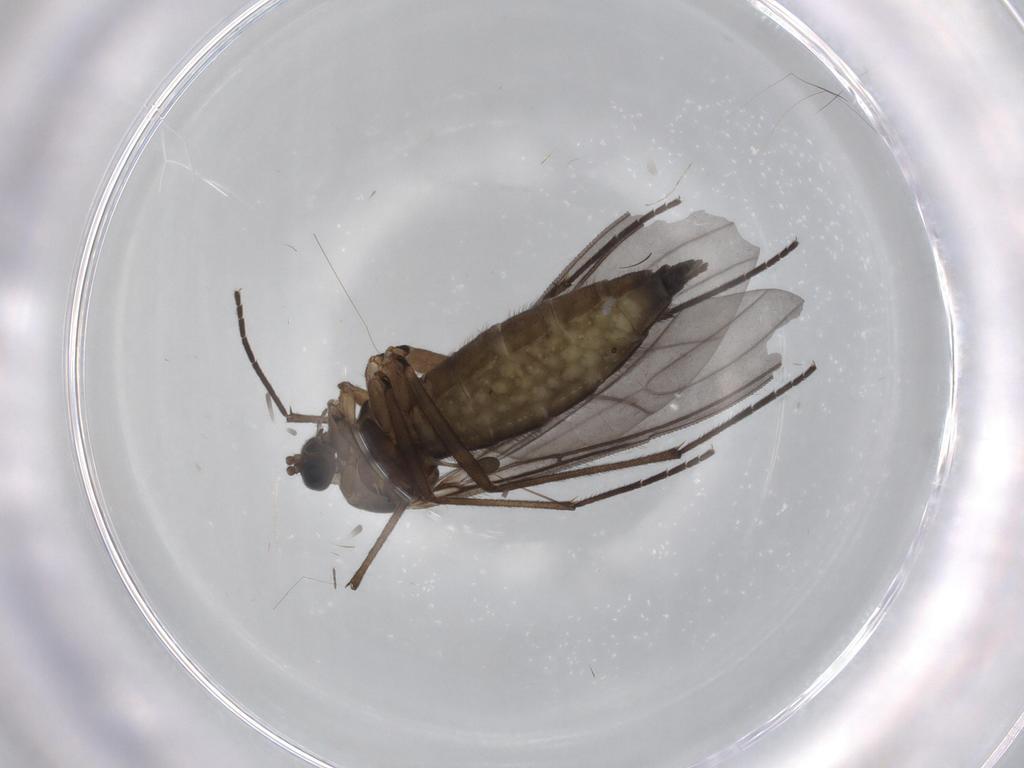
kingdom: Animalia
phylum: Arthropoda
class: Insecta
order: Diptera
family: Sciaridae
